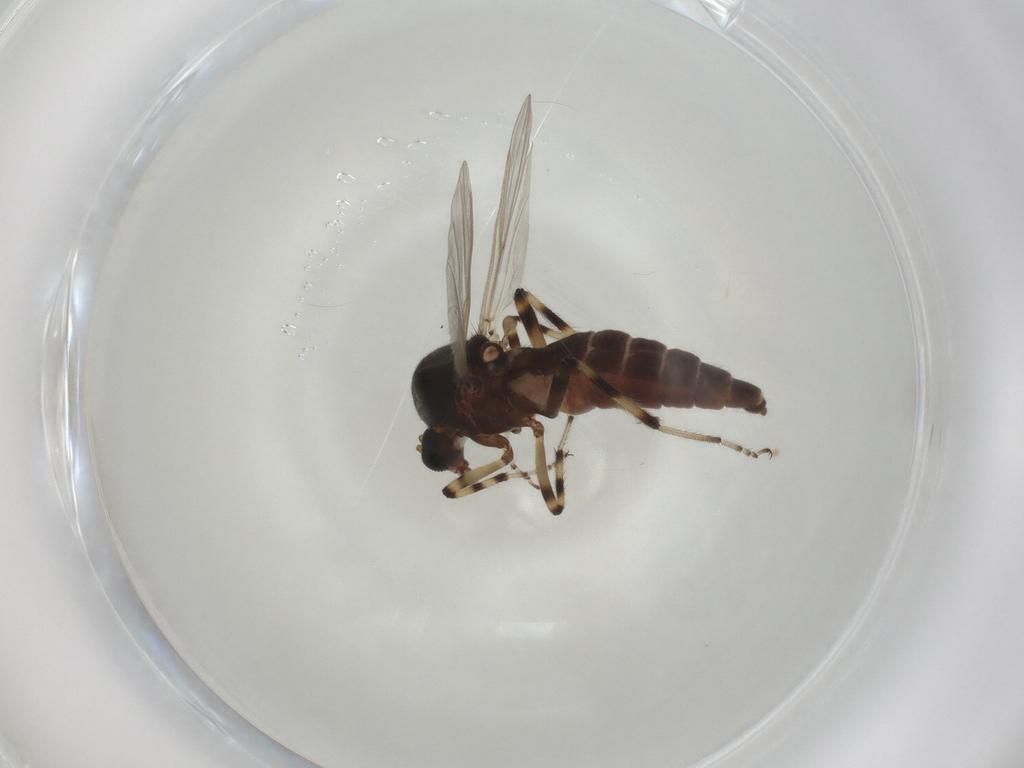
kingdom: Animalia
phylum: Arthropoda
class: Insecta
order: Diptera
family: Ceratopogonidae
